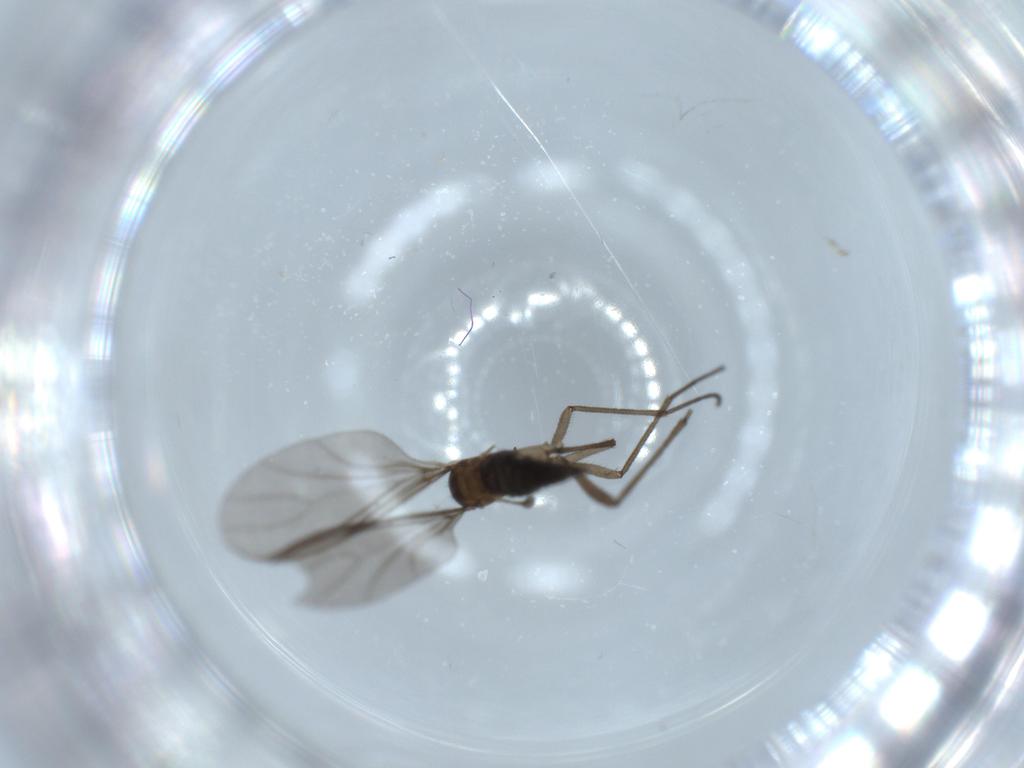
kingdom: Animalia
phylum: Arthropoda
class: Insecta
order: Diptera
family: Sciaridae
